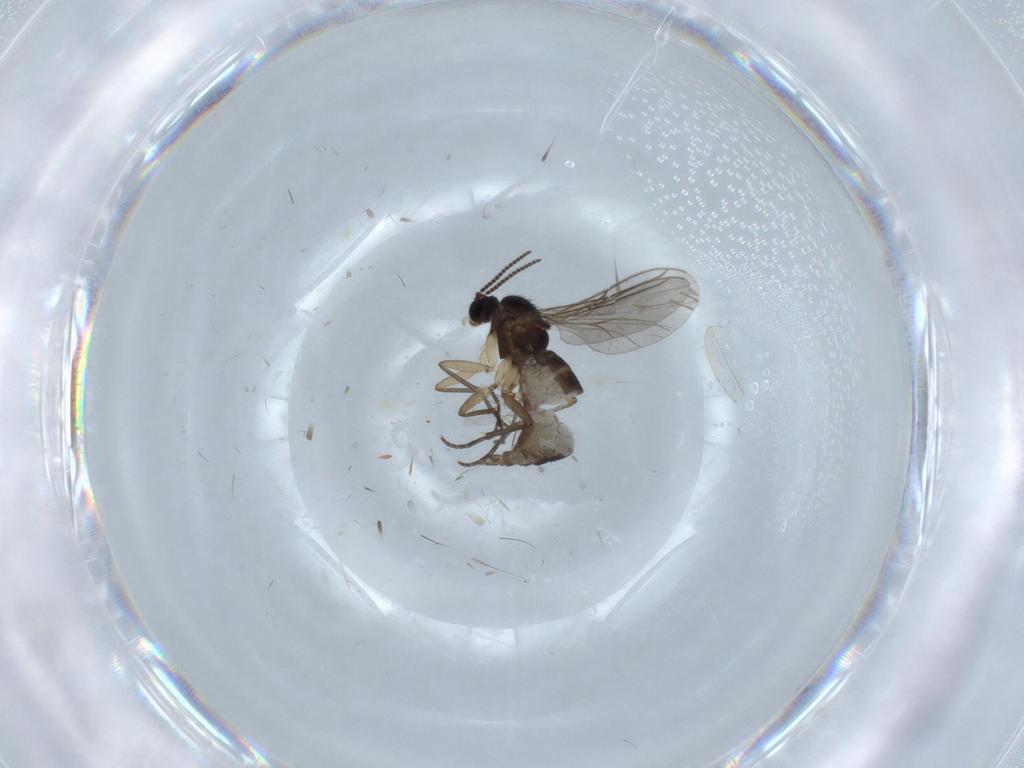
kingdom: Animalia
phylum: Arthropoda
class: Insecta
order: Diptera
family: Sciaridae
